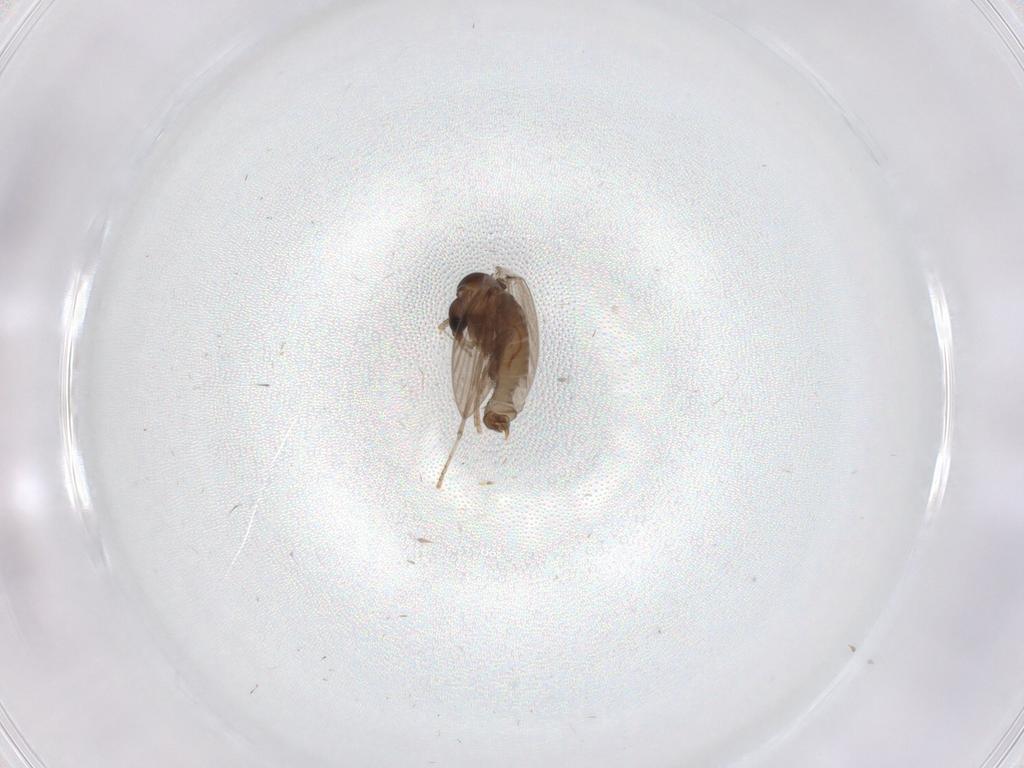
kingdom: Animalia
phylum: Arthropoda
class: Insecta
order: Diptera
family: Psychodidae
